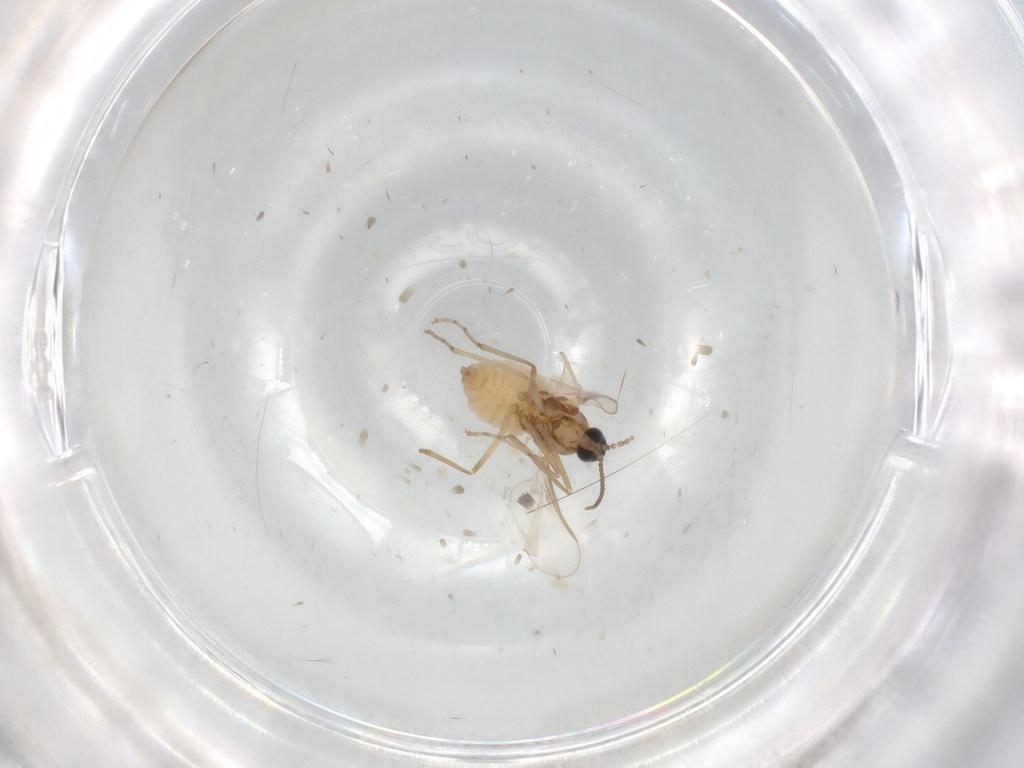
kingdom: Animalia
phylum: Arthropoda
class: Insecta
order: Diptera
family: Cecidomyiidae
